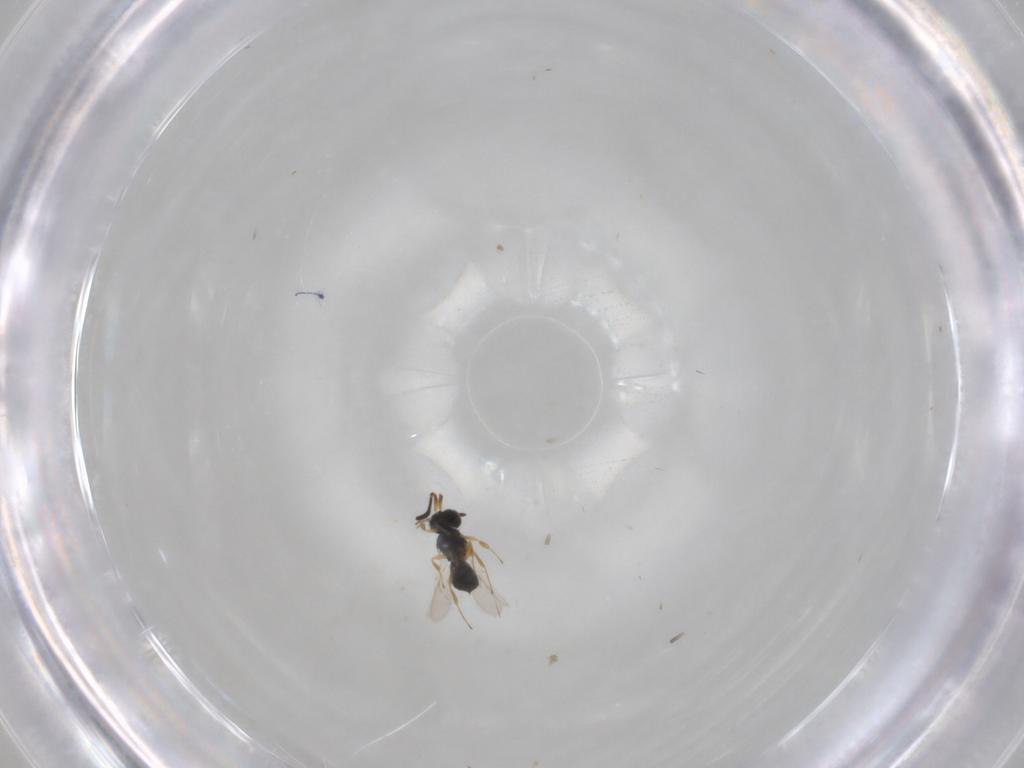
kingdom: Animalia
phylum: Arthropoda
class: Insecta
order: Hymenoptera
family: Scelionidae
